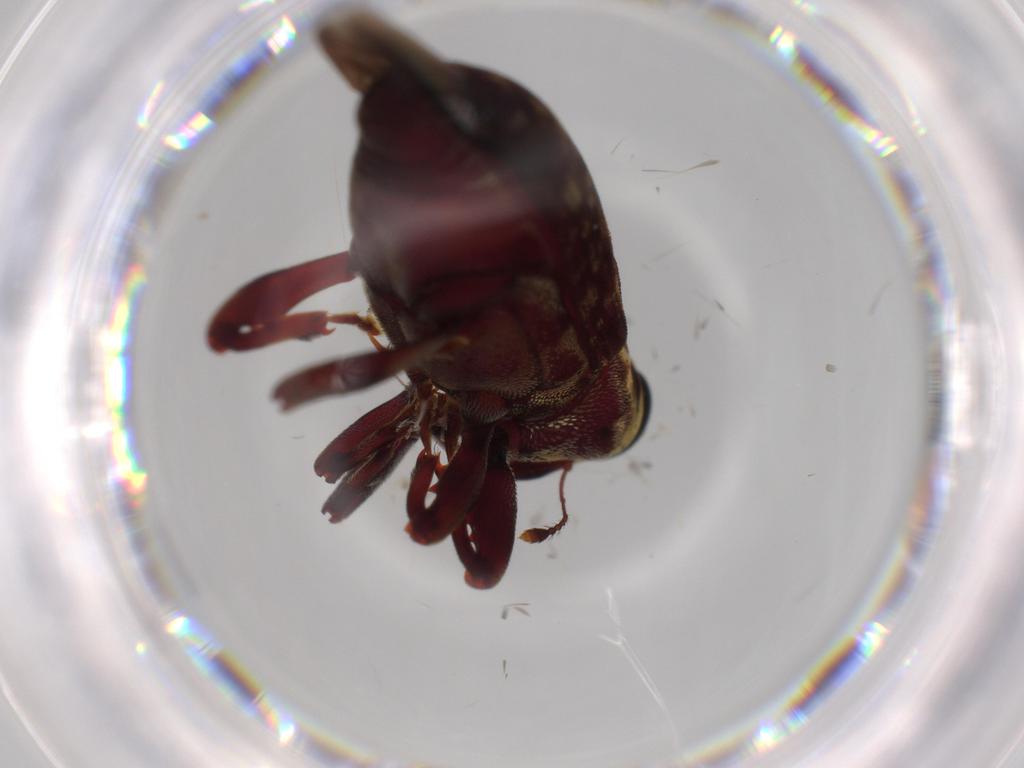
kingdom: Animalia
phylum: Arthropoda
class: Insecta
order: Coleoptera
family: Curculionidae
